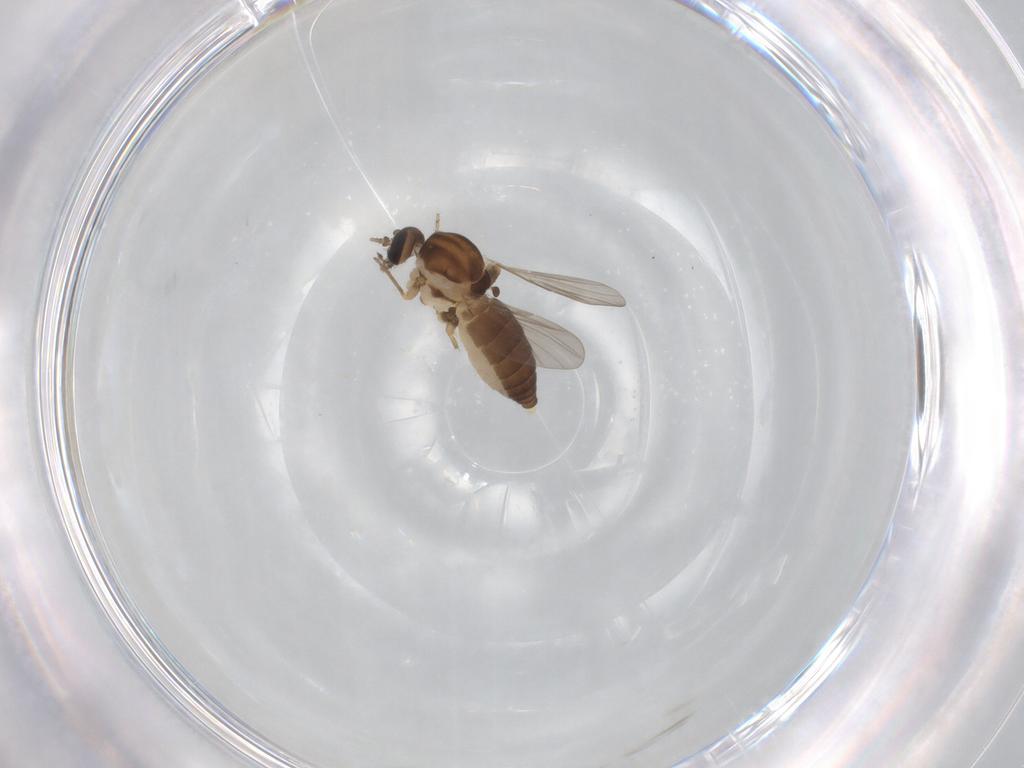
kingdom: Animalia
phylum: Arthropoda
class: Insecta
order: Diptera
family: Ceratopogonidae
